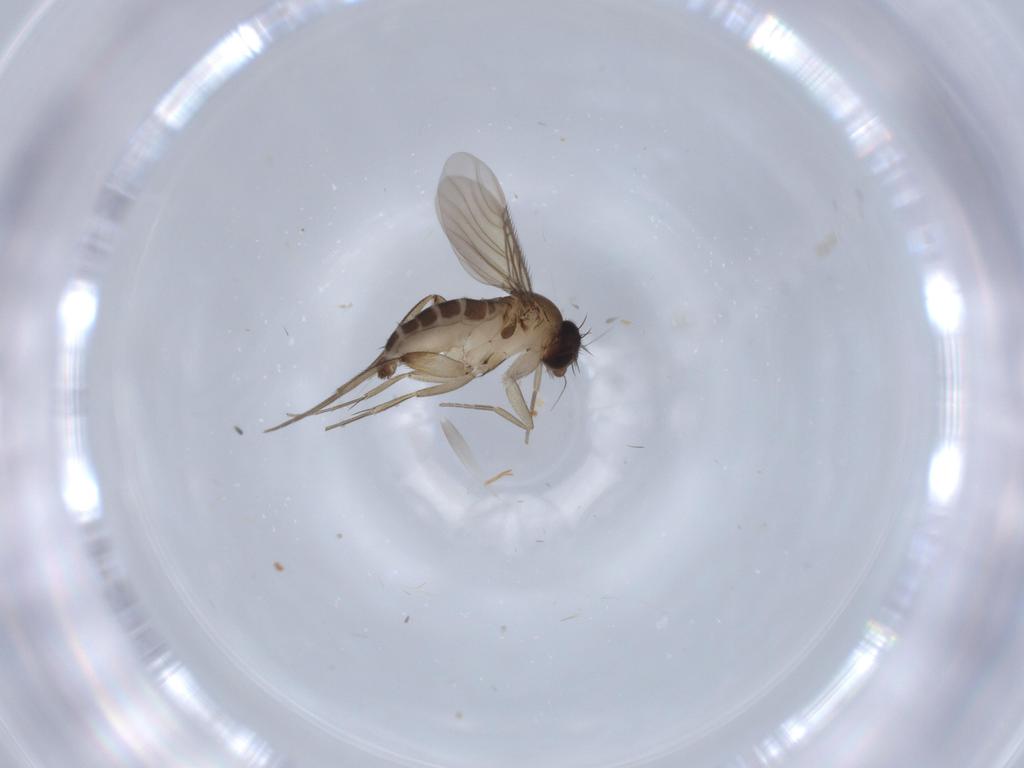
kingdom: Animalia
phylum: Arthropoda
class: Insecta
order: Diptera
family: Phoridae
